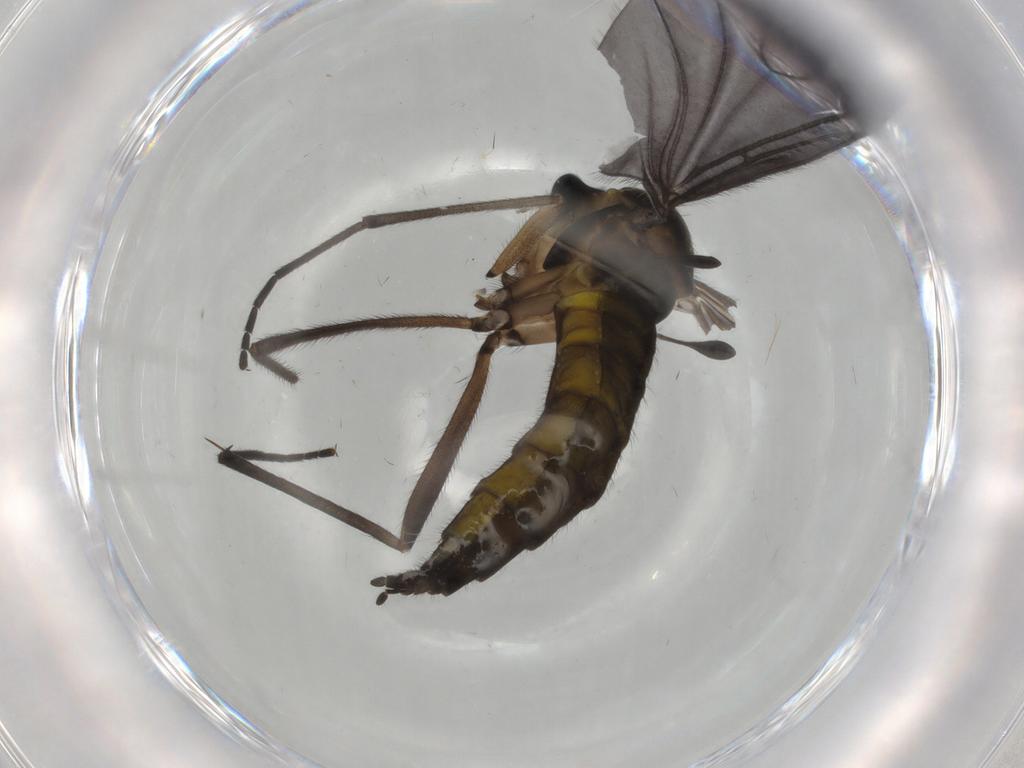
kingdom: Animalia
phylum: Arthropoda
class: Insecta
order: Diptera
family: Sciaridae
